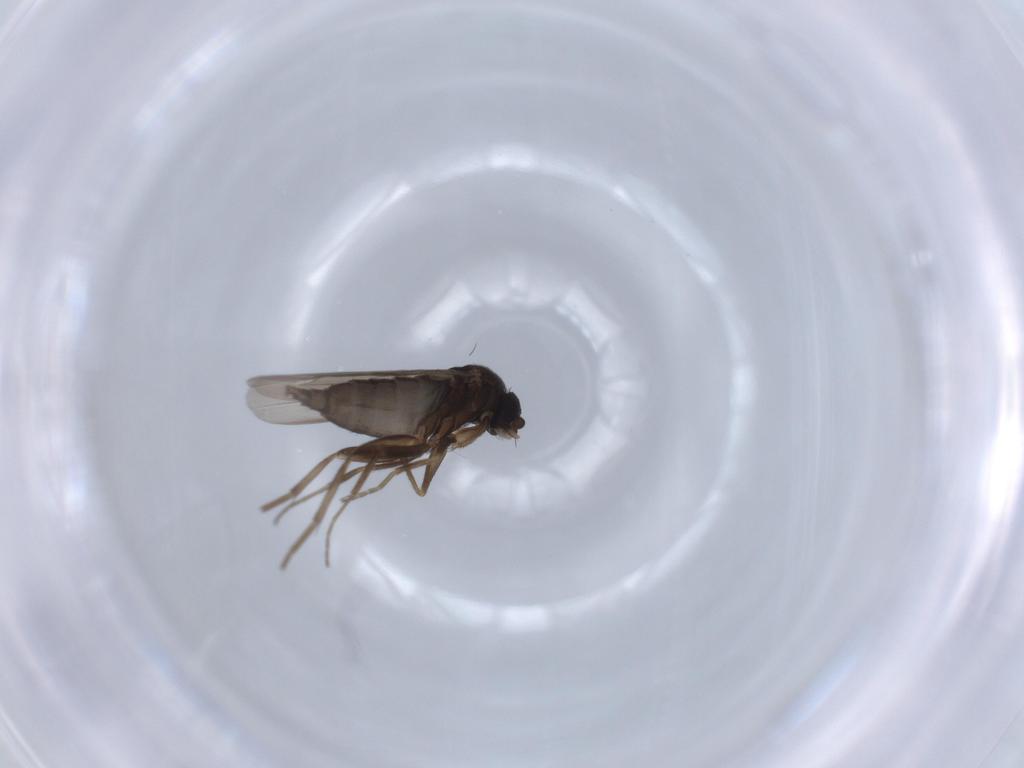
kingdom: Animalia
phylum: Arthropoda
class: Insecta
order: Diptera
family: Phoridae
